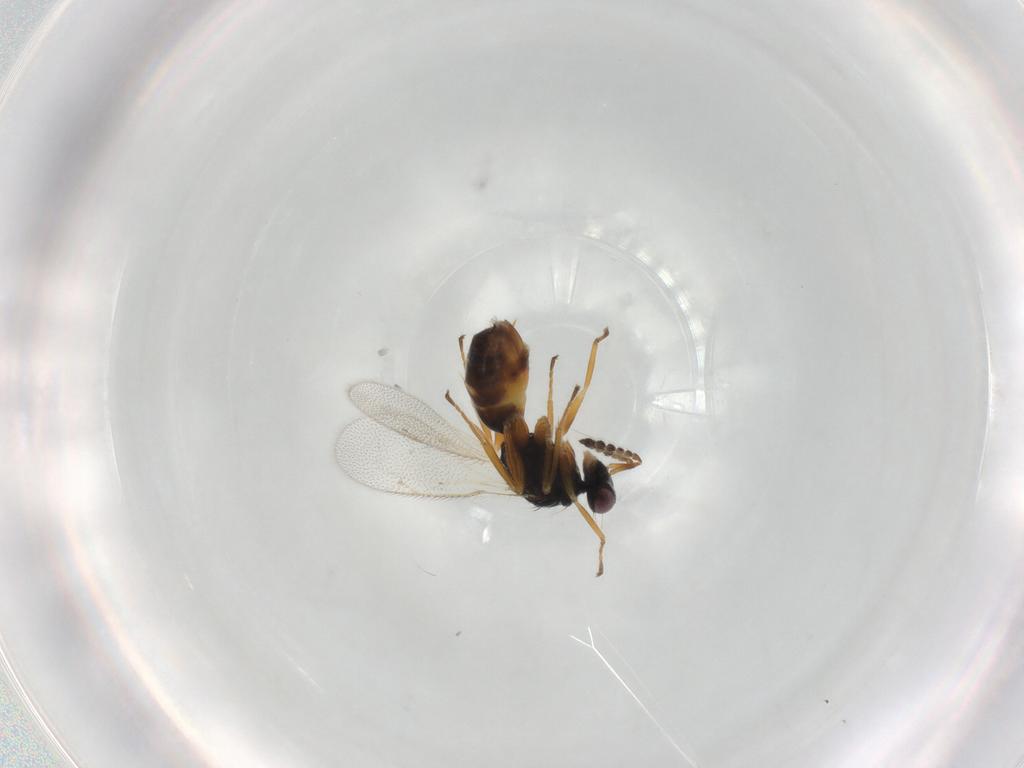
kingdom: Animalia
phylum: Arthropoda
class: Insecta
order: Hymenoptera
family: Eulophidae
